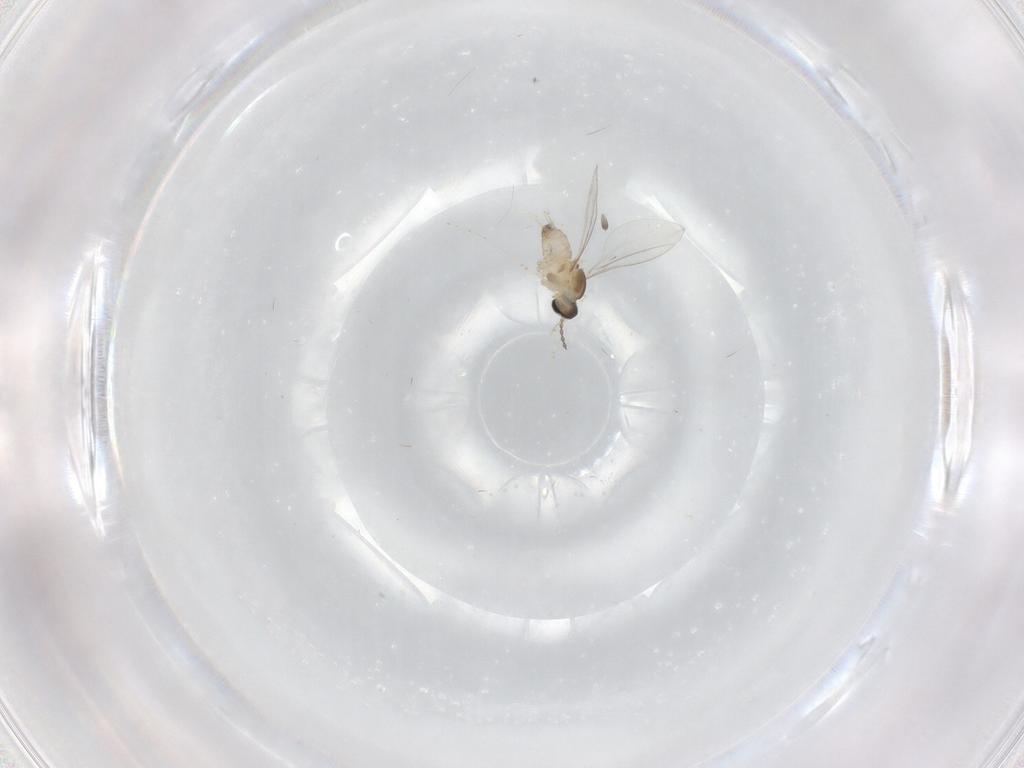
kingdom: Animalia
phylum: Arthropoda
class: Insecta
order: Diptera
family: Cecidomyiidae
